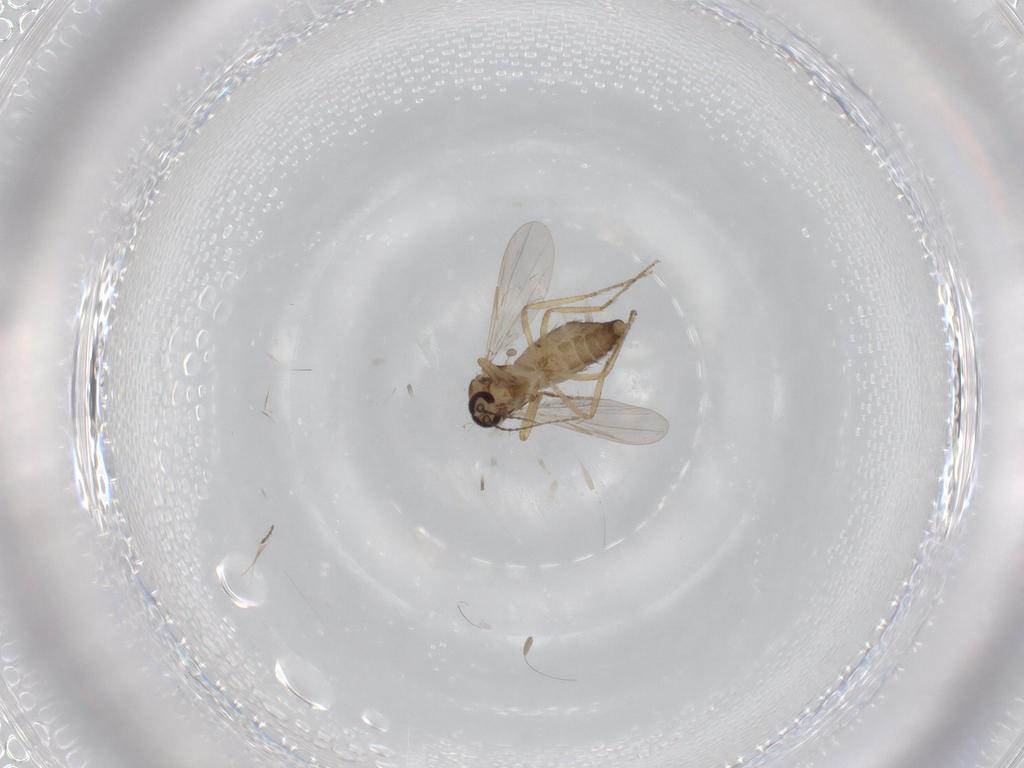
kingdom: Animalia
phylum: Arthropoda
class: Insecta
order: Diptera
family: Ceratopogonidae
